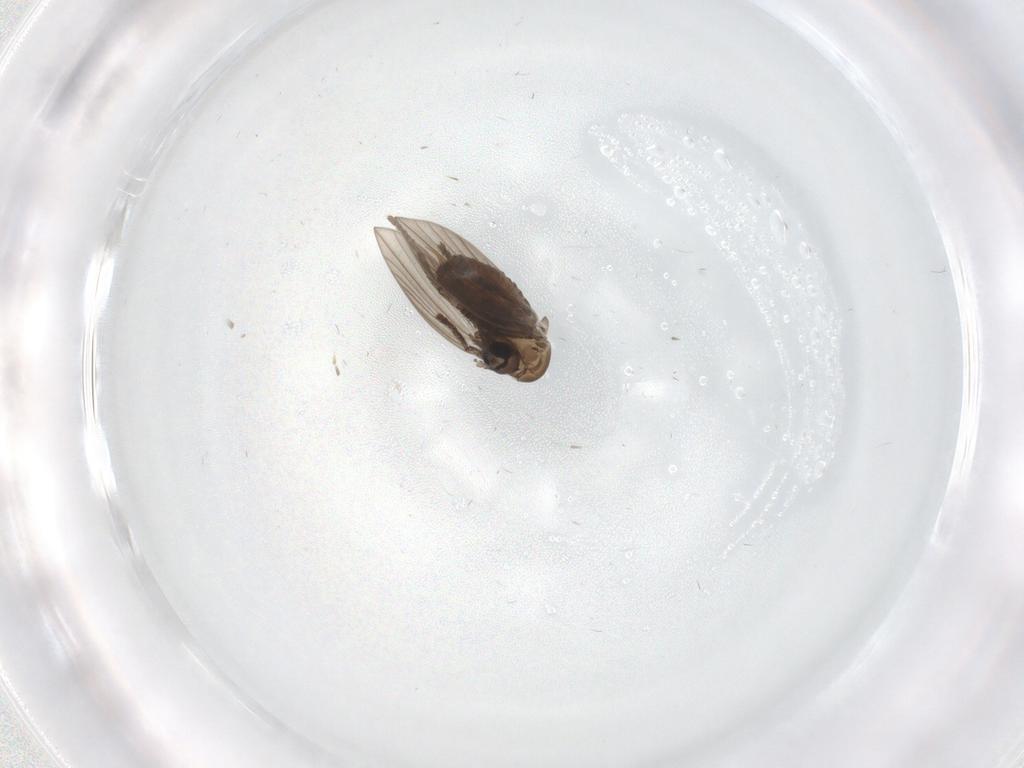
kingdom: Animalia
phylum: Arthropoda
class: Insecta
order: Diptera
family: Psychodidae
